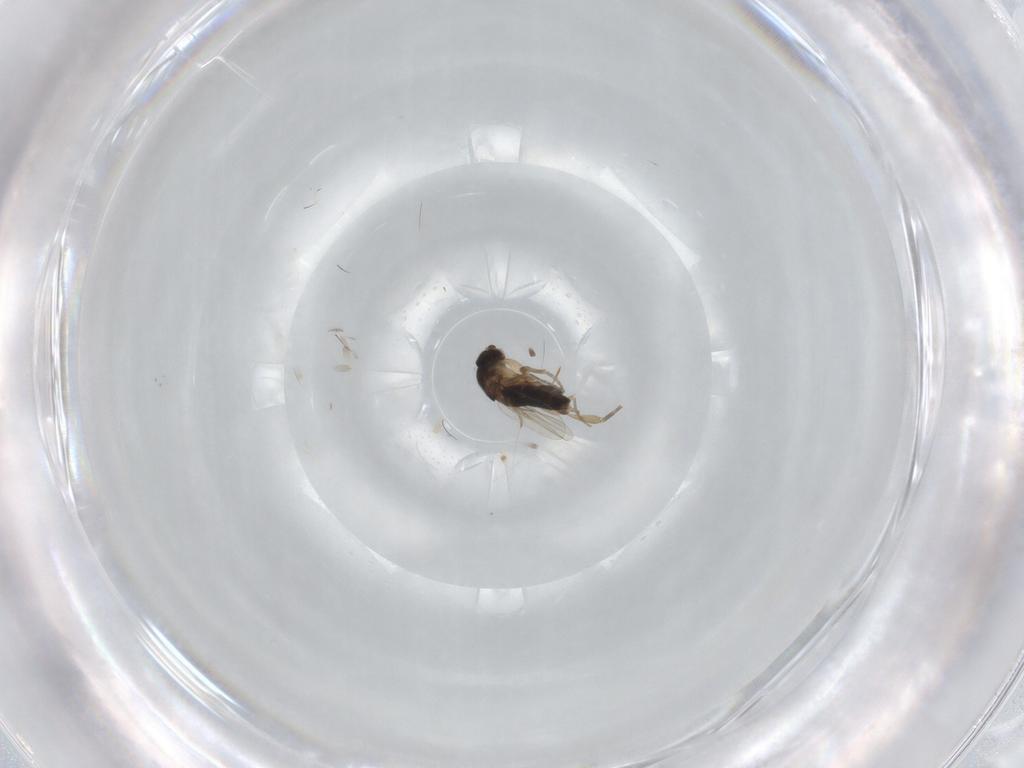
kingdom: Animalia
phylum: Arthropoda
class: Insecta
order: Diptera
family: Phoridae
